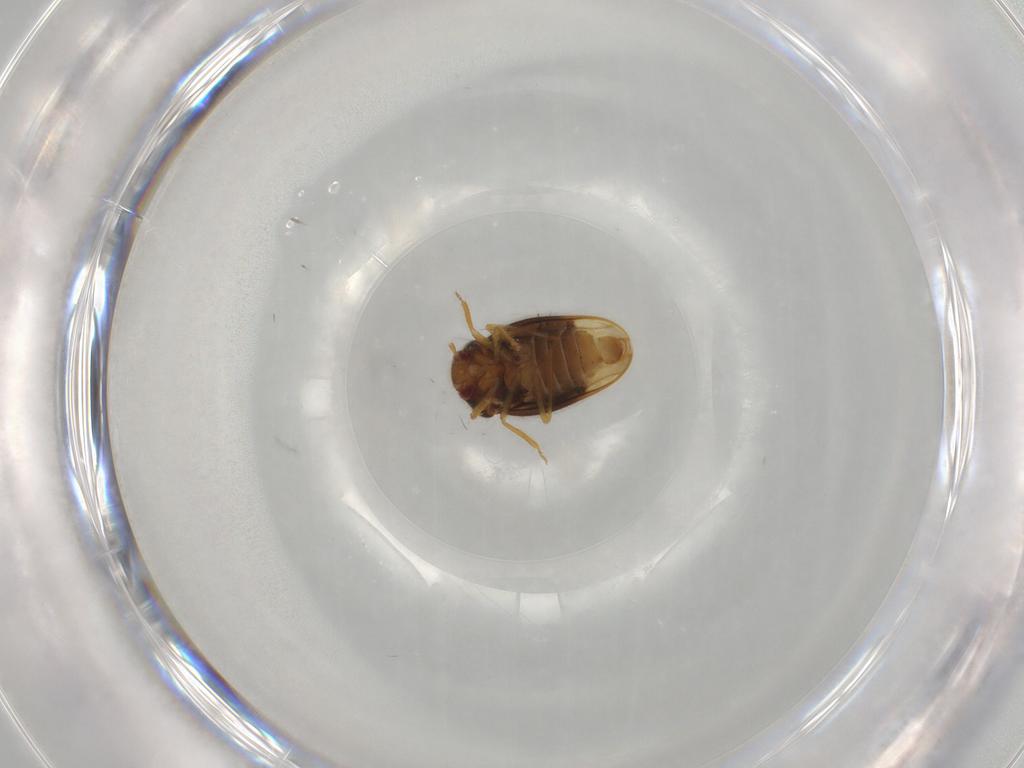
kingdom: Animalia
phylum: Arthropoda
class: Insecta
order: Hemiptera
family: Schizopteridae
